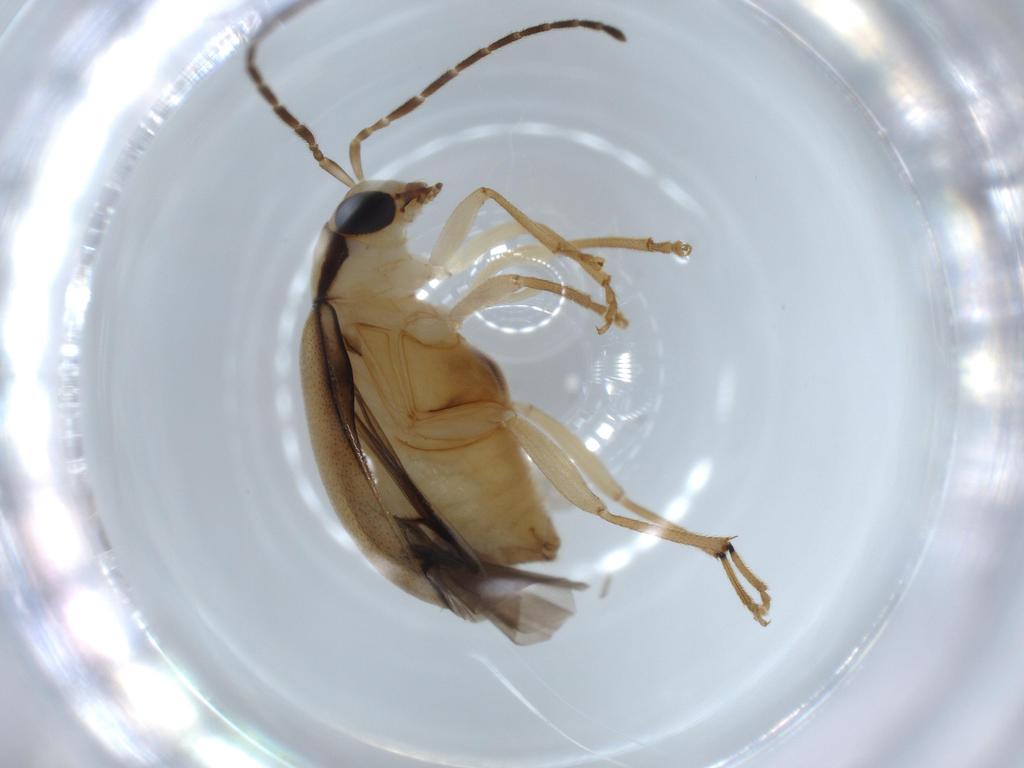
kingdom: Animalia
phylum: Arthropoda
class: Insecta
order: Coleoptera
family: Chrysomelidae
